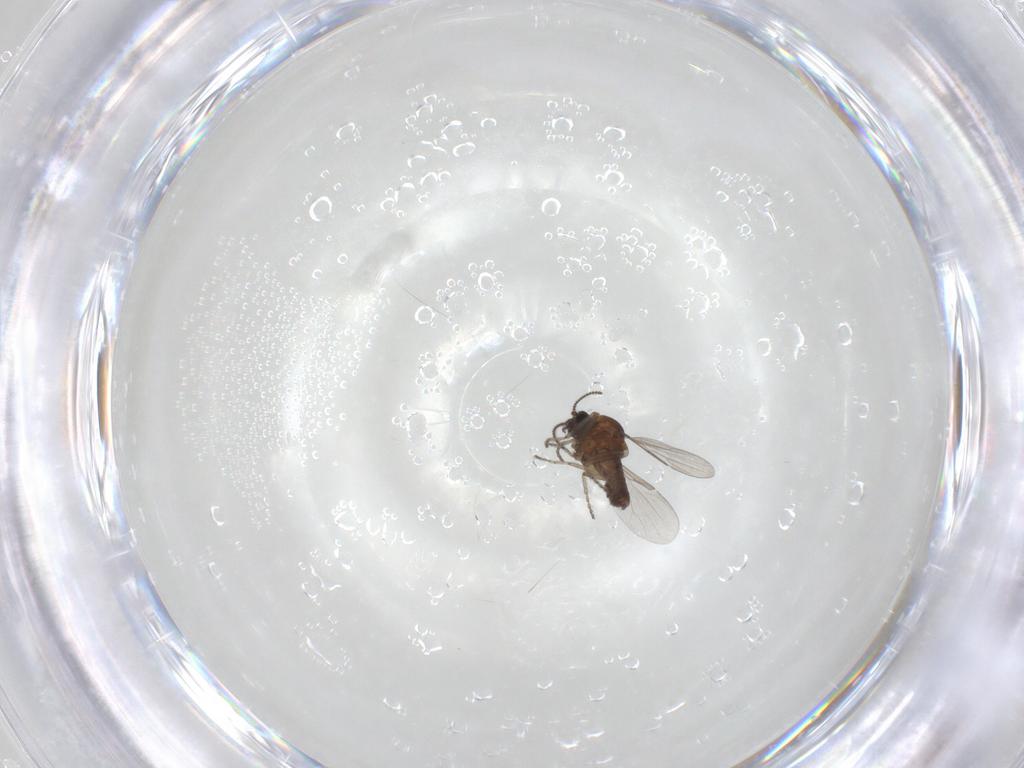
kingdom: Animalia
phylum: Arthropoda
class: Insecta
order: Diptera
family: Ceratopogonidae
